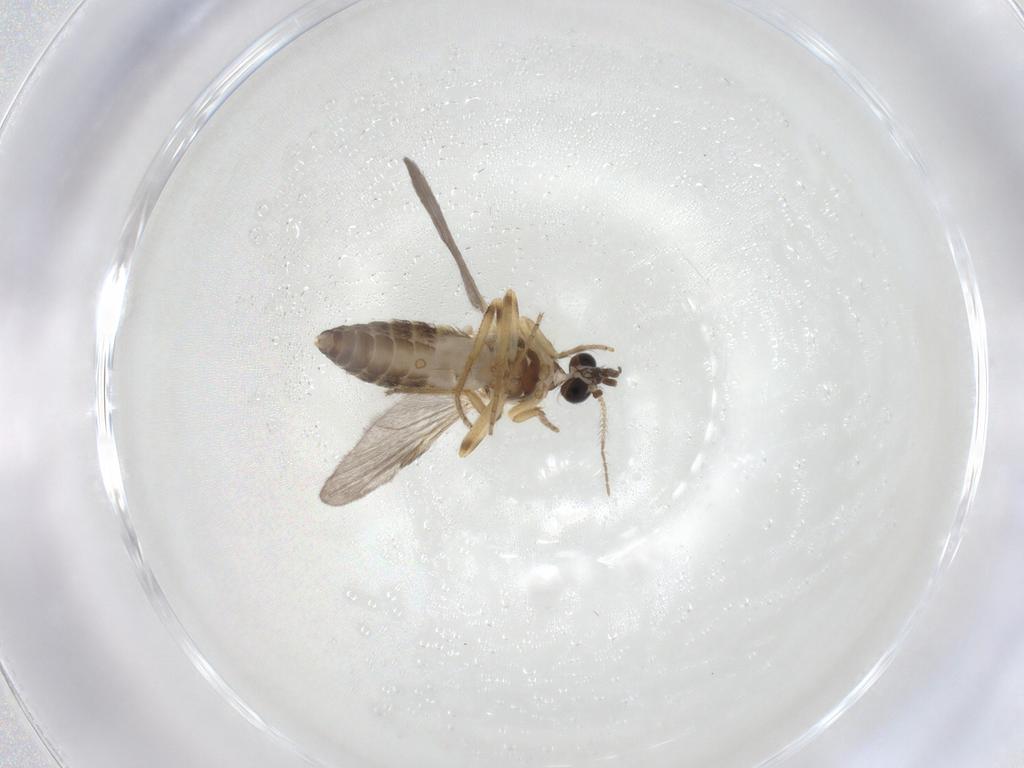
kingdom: Animalia
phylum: Arthropoda
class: Insecta
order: Diptera
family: Ceratopogonidae
